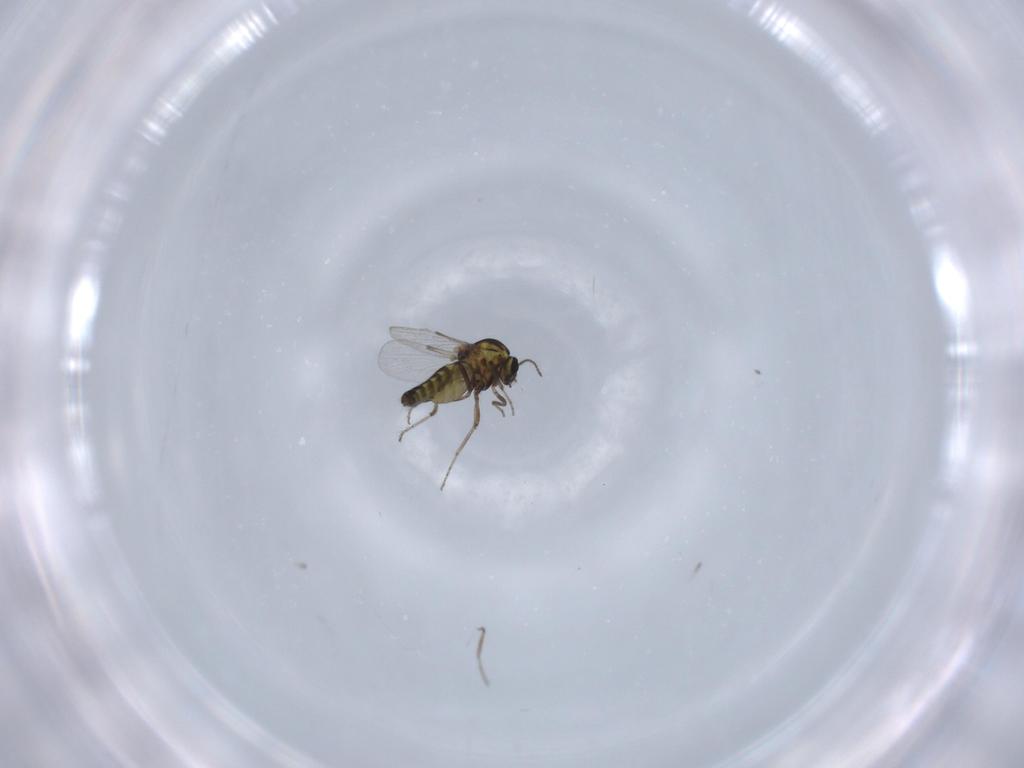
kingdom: Animalia
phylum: Arthropoda
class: Insecta
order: Diptera
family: Ceratopogonidae
